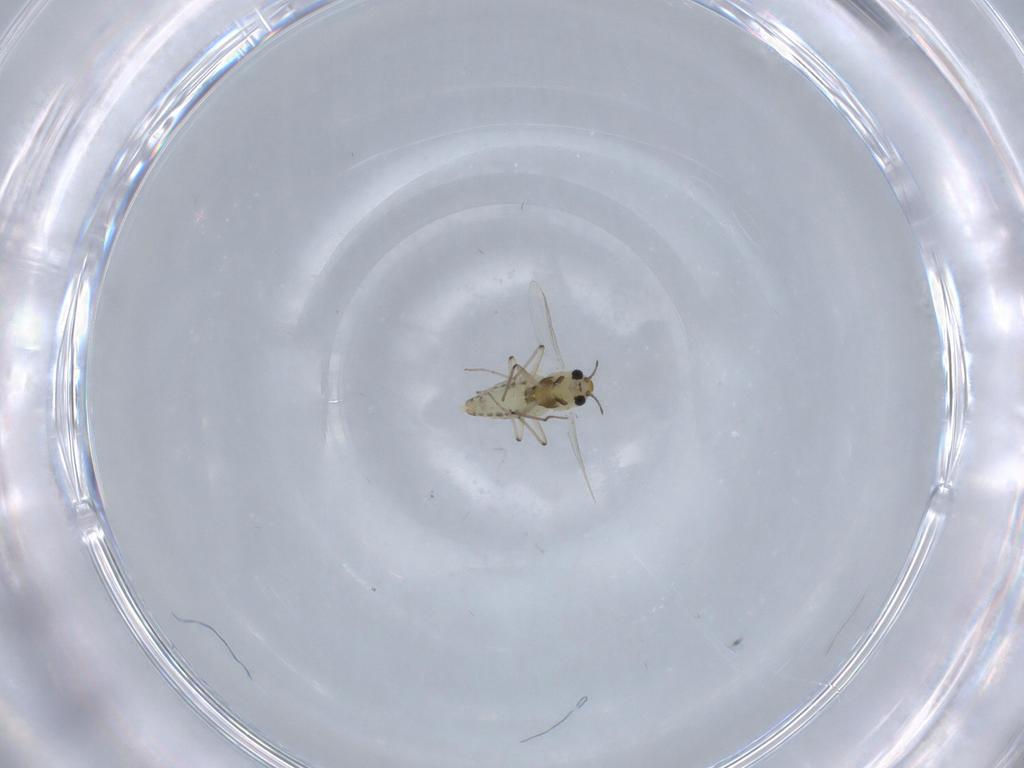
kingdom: Animalia
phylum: Arthropoda
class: Insecta
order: Diptera
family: Chironomidae
